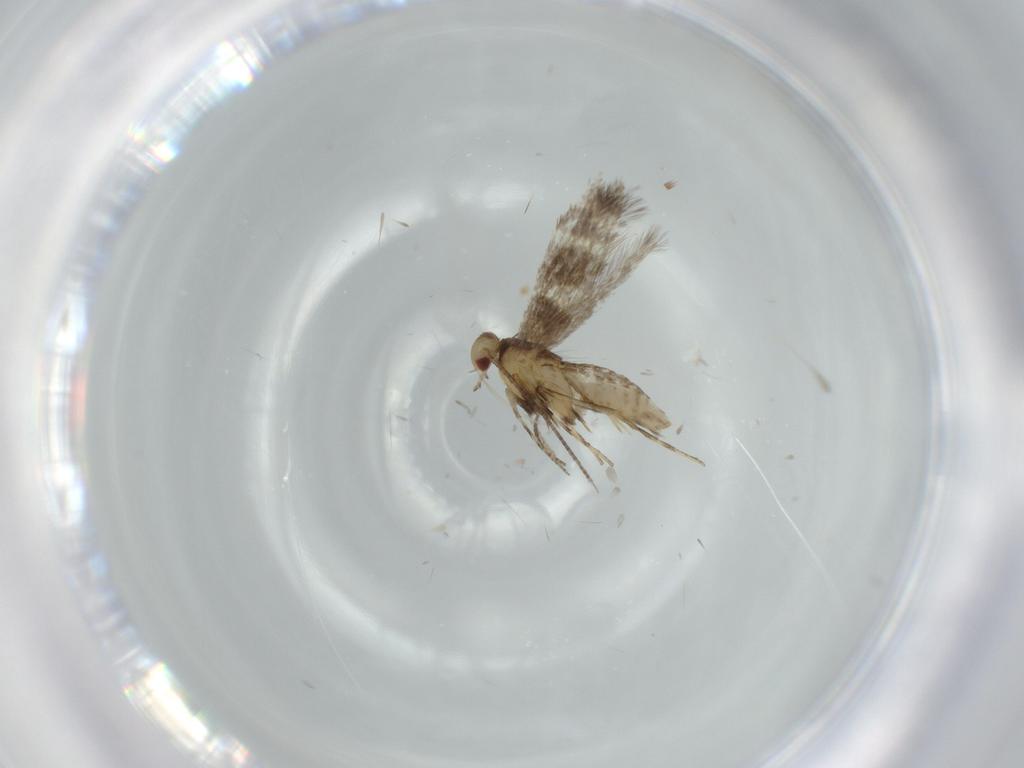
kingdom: Animalia
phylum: Arthropoda
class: Insecta
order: Lepidoptera
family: Gracillariidae
